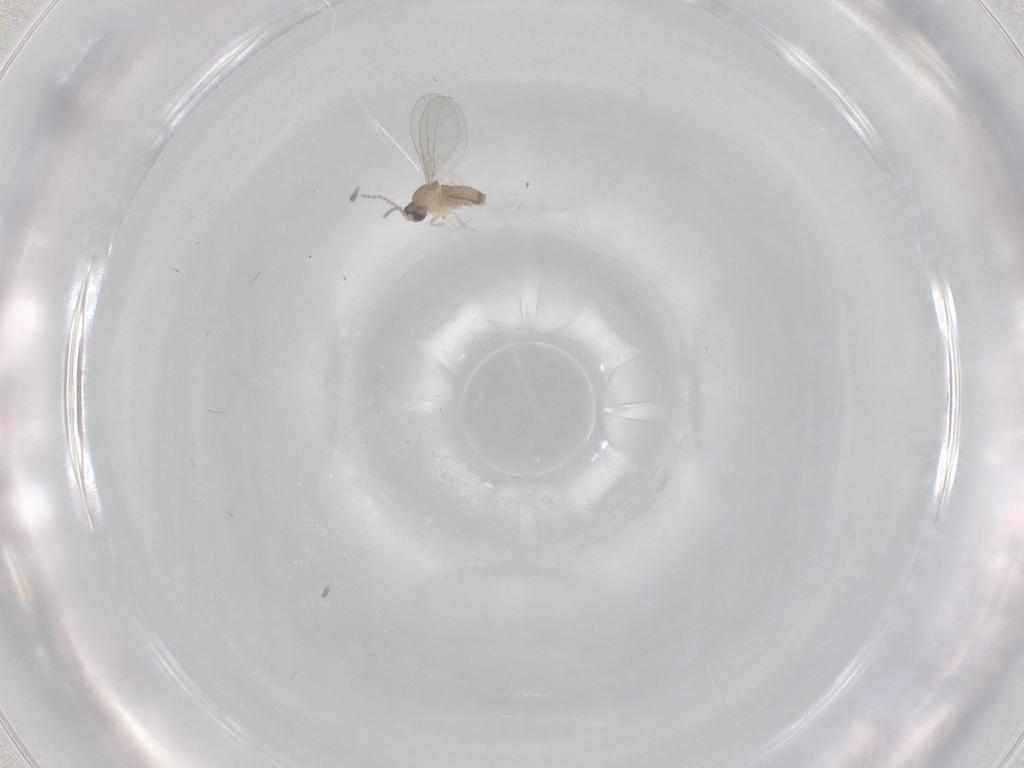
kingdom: Animalia
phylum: Arthropoda
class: Insecta
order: Diptera
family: Cecidomyiidae
